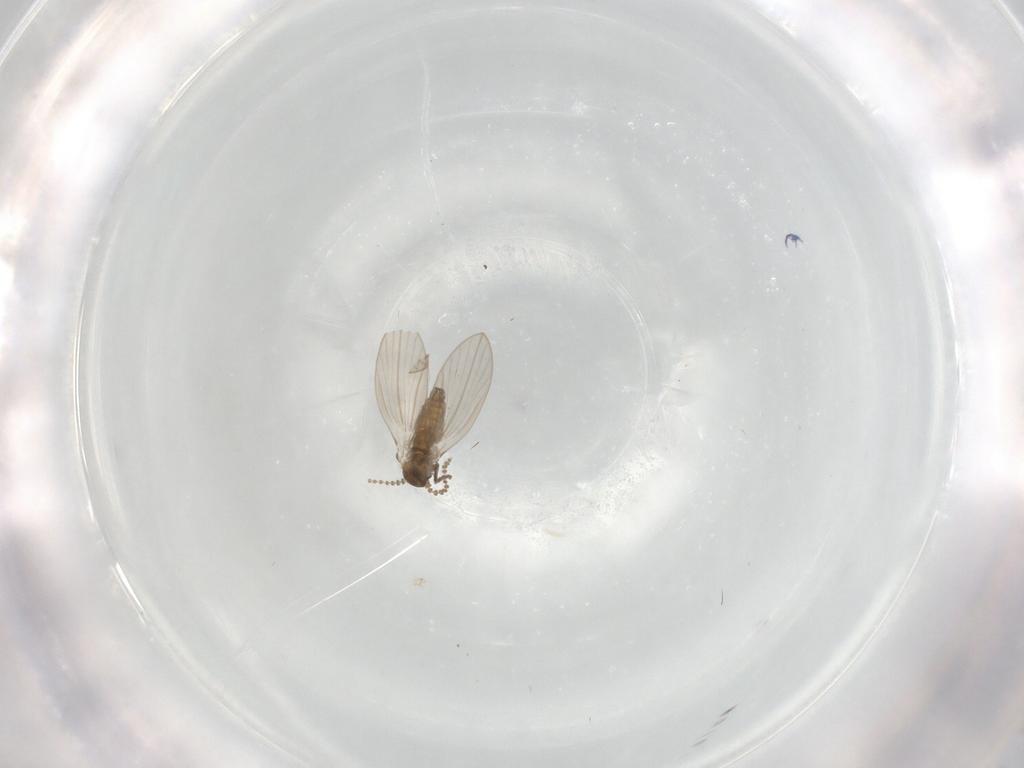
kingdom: Animalia
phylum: Arthropoda
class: Insecta
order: Diptera
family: Psychodidae
